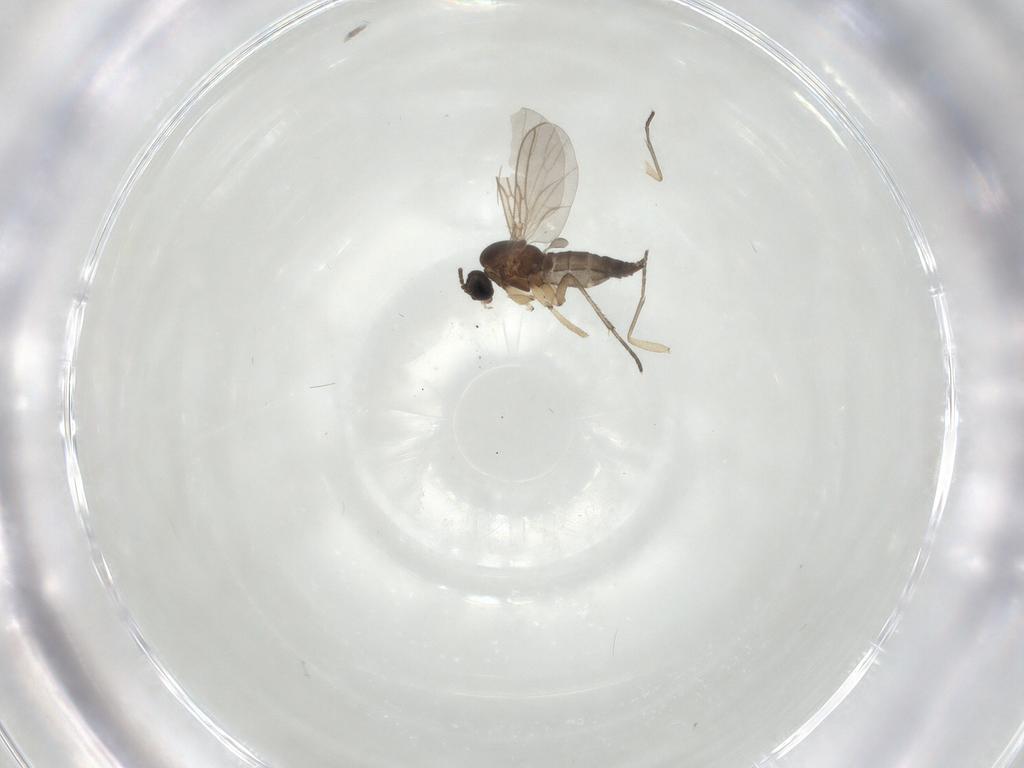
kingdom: Animalia
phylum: Arthropoda
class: Insecta
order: Diptera
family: Sciaridae
